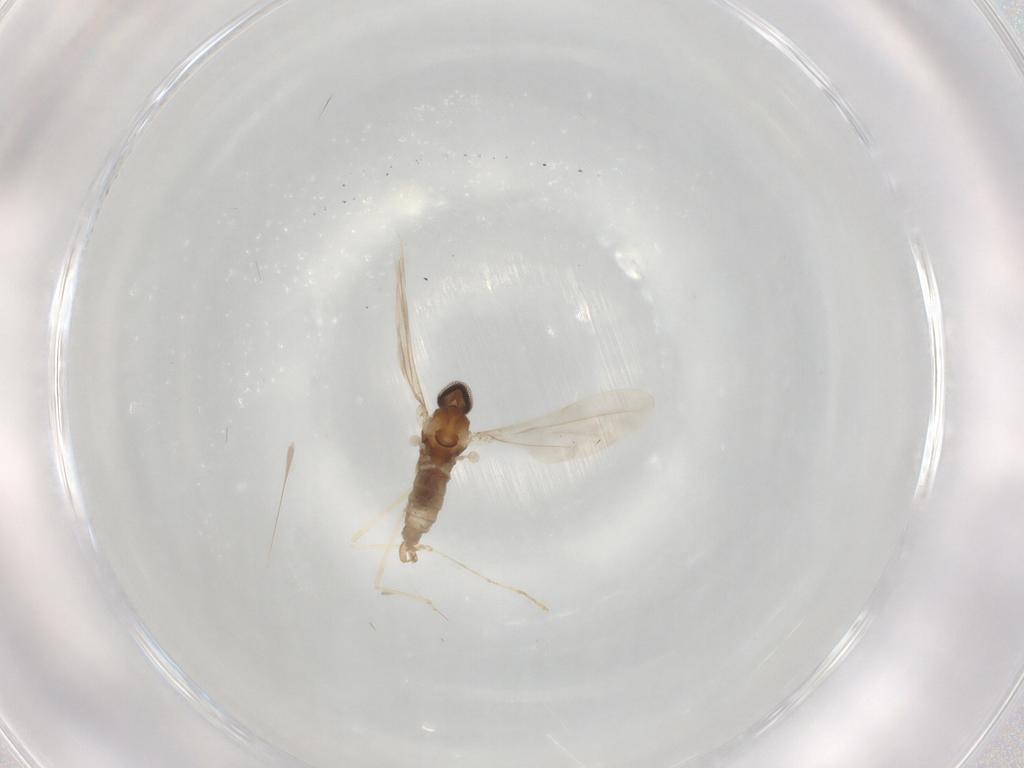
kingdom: Animalia
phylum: Arthropoda
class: Insecta
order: Diptera
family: Cecidomyiidae
